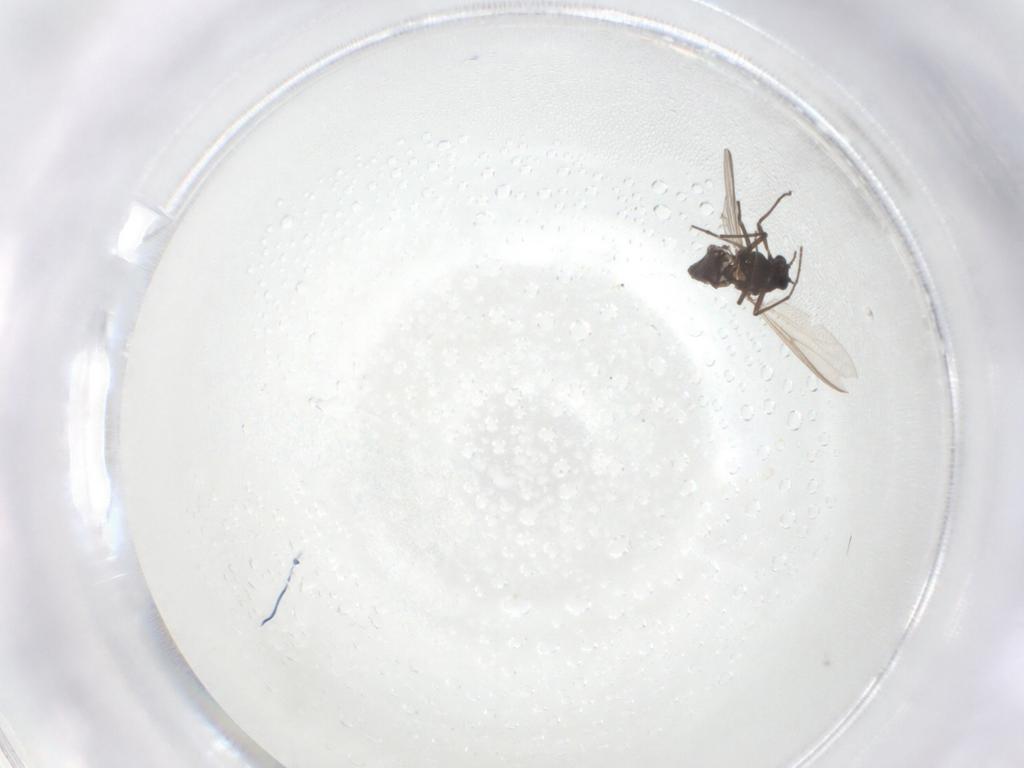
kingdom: Animalia
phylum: Arthropoda
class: Insecta
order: Diptera
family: Chironomidae
